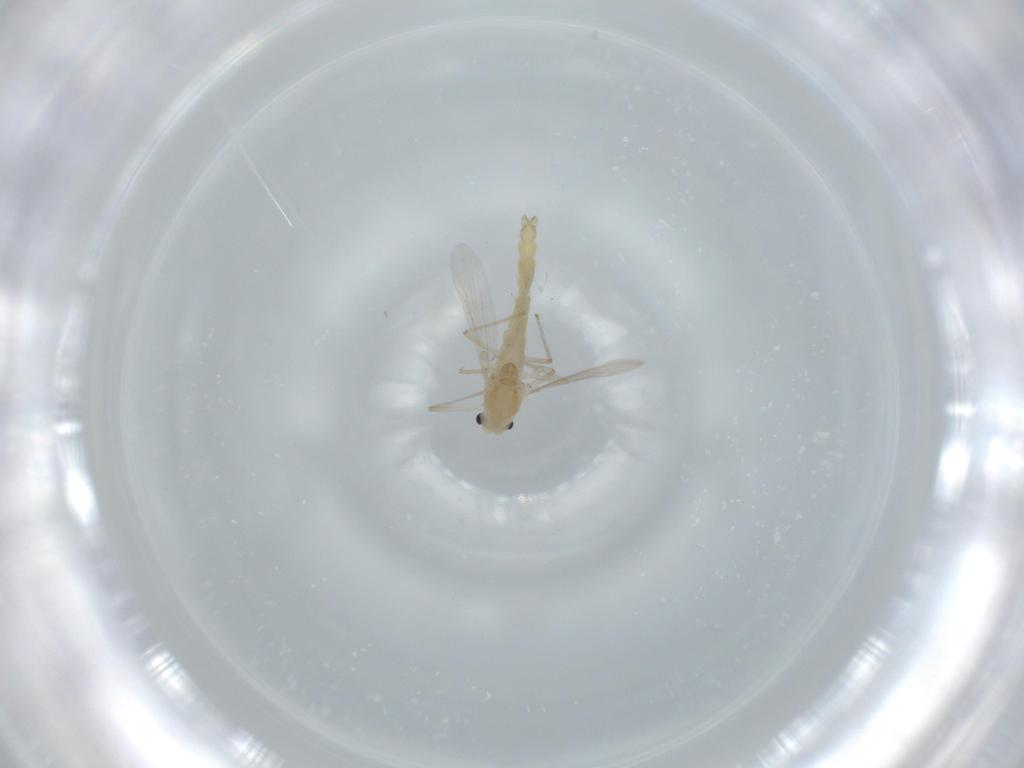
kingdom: Animalia
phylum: Arthropoda
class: Insecta
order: Diptera
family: Chironomidae
